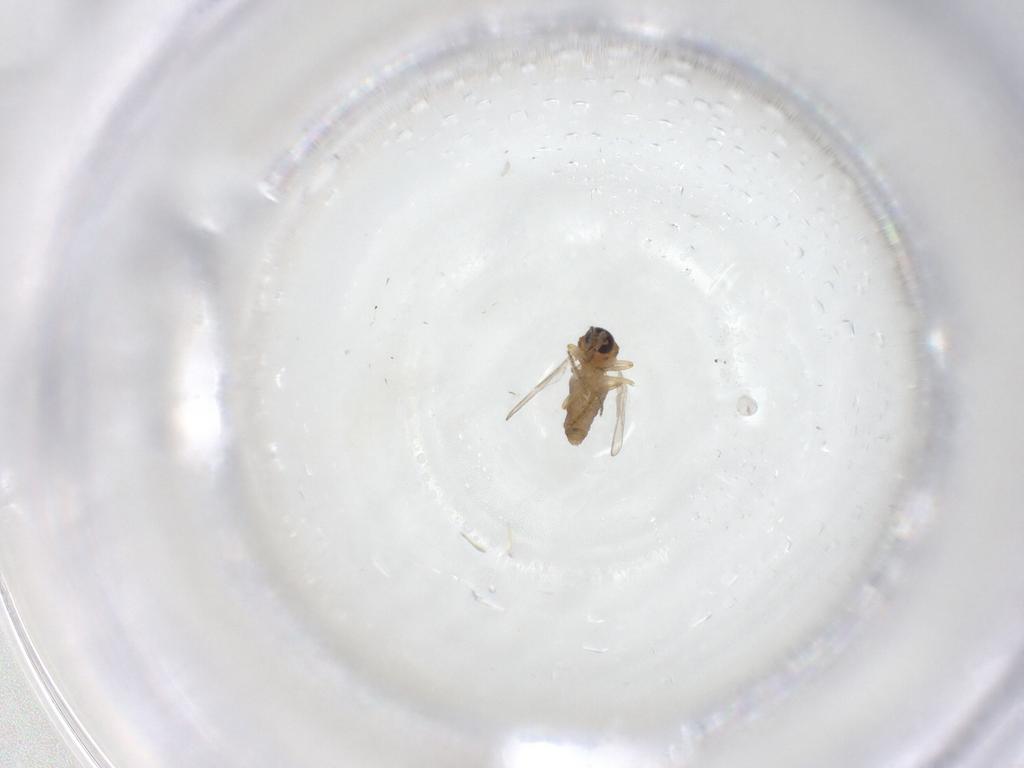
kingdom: Animalia
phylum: Arthropoda
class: Insecta
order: Diptera
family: Ceratopogonidae
